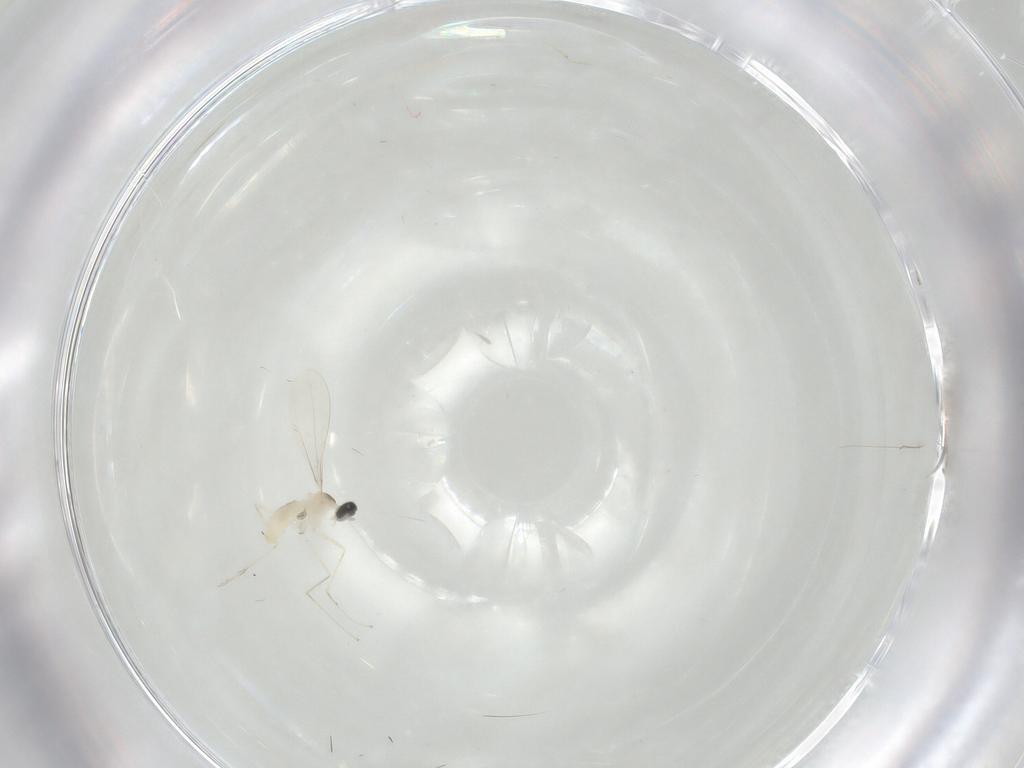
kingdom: Animalia
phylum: Arthropoda
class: Insecta
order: Diptera
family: Cecidomyiidae
